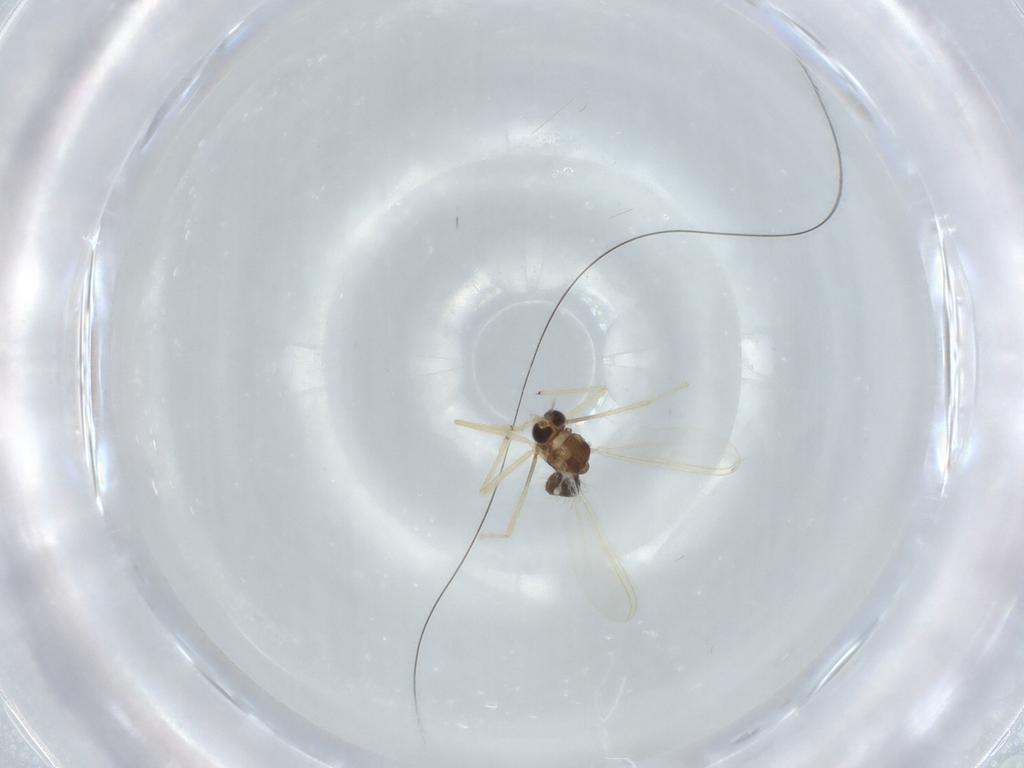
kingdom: Animalia
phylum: Arthropoda
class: Insecta
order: Diptera
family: Chironomidae
